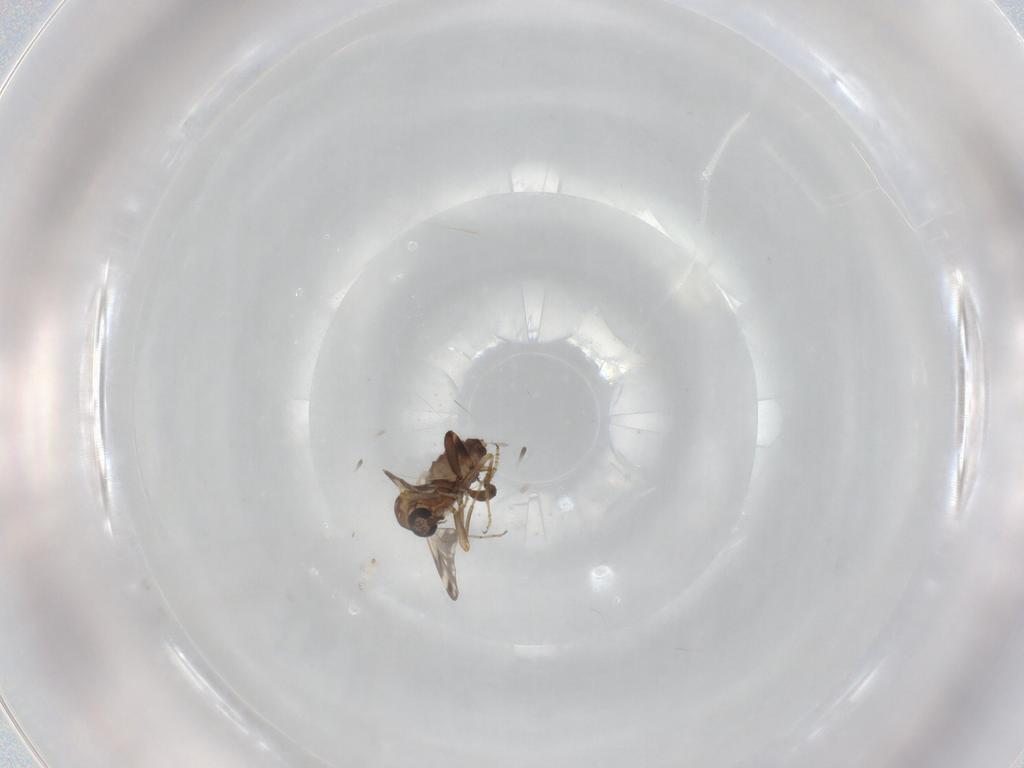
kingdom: Animalia
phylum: Arthropoda
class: Insecta
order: Diptera
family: Ceratopogonidae
